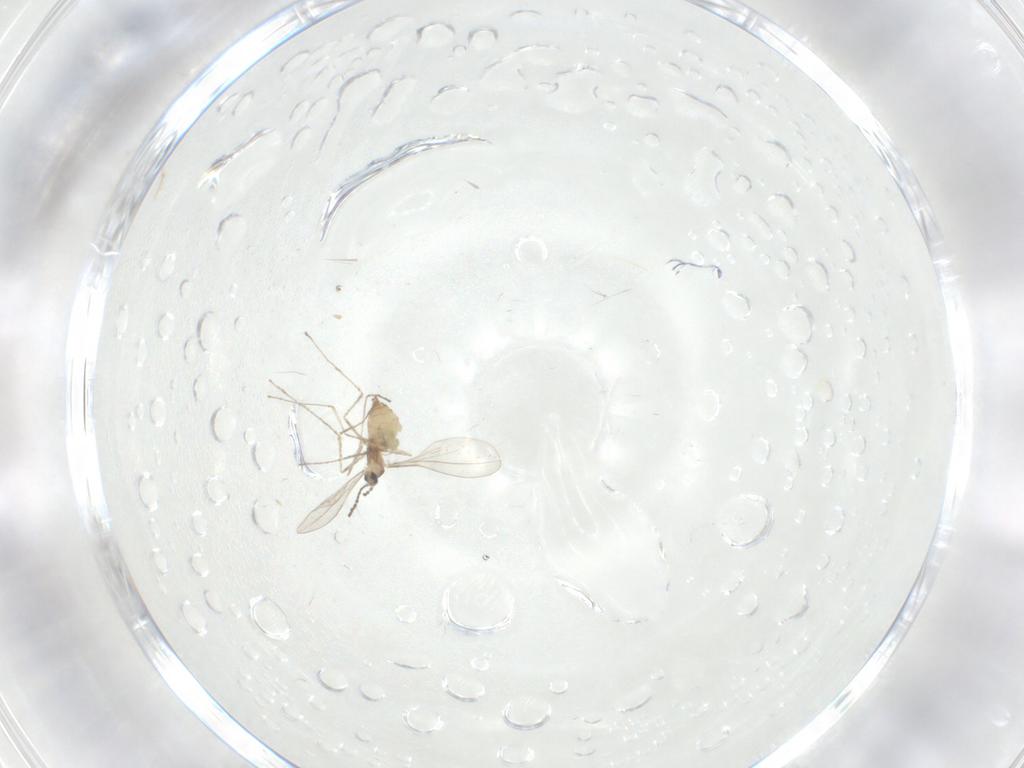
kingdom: Animalia
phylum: Arthropoda
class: Insecta
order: Diptera
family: Cecidomyiidae
